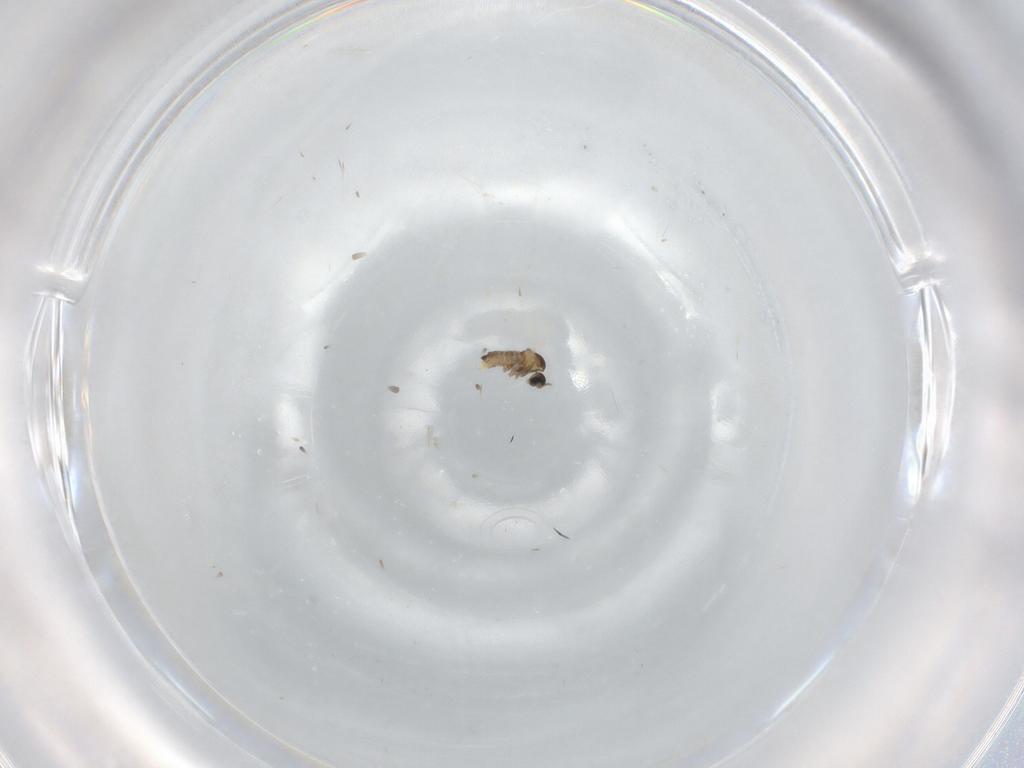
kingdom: Animalia
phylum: Arthropoda
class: Insecta
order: Diptera
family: Cecidomyiidae
